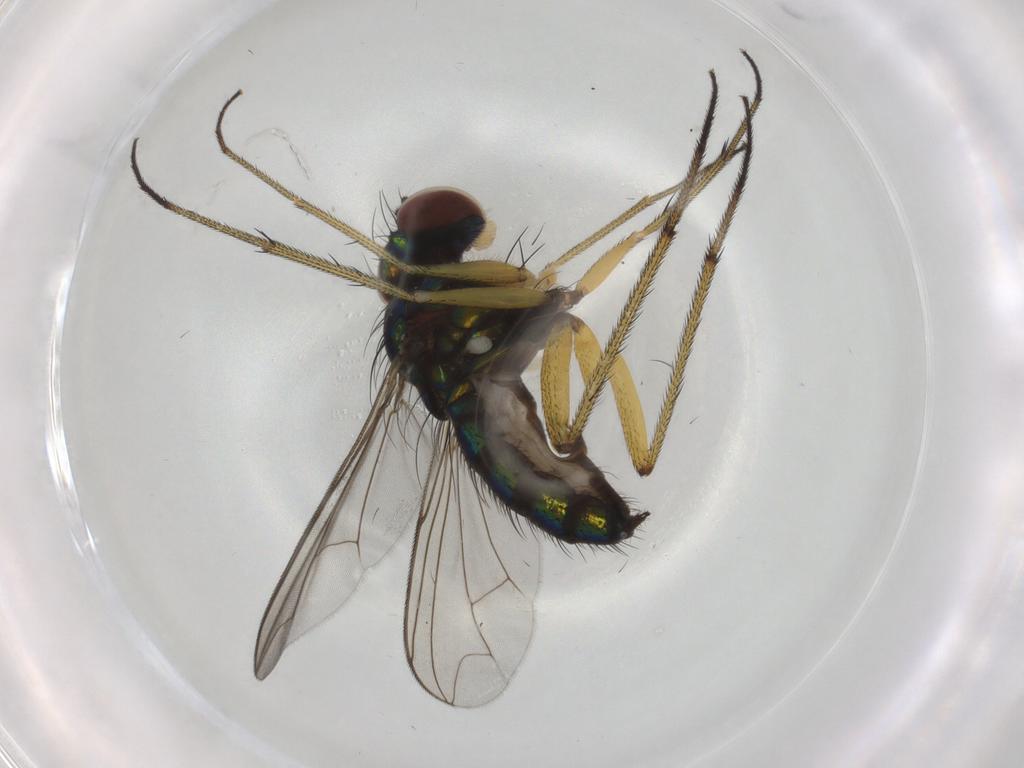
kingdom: Animalia
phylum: Arthropoda
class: Insecta
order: Diptera
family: Dolichopodidae
